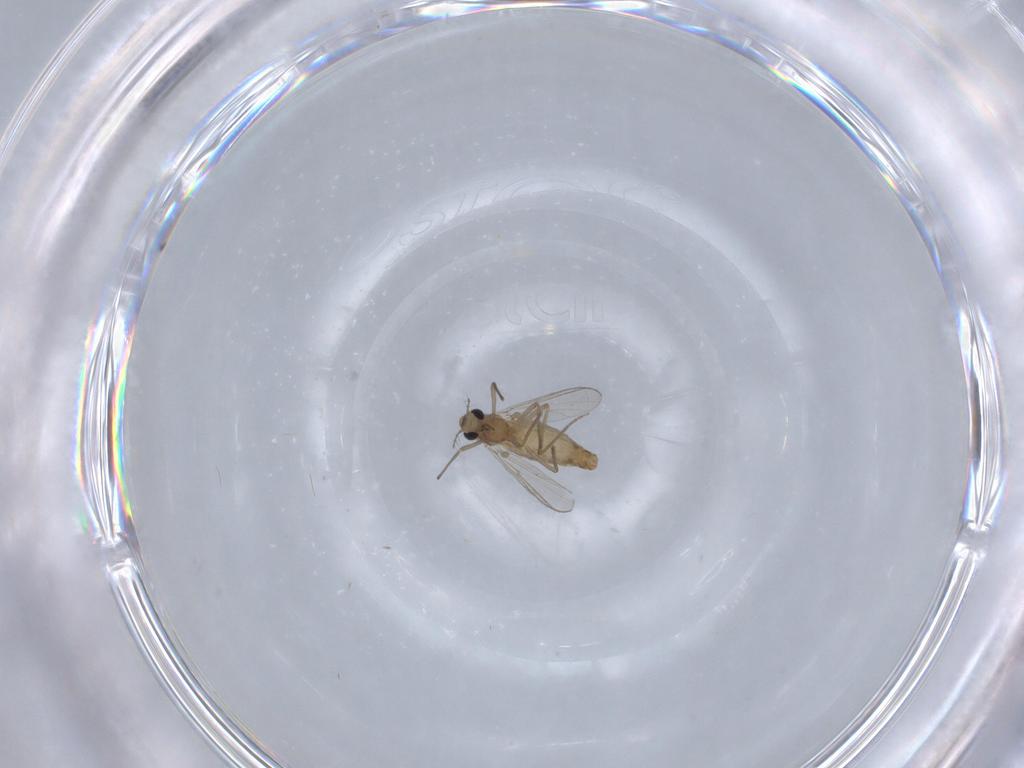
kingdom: Animalia
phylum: Arthropoda
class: Insecta
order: Diptera
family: Chironomidae
